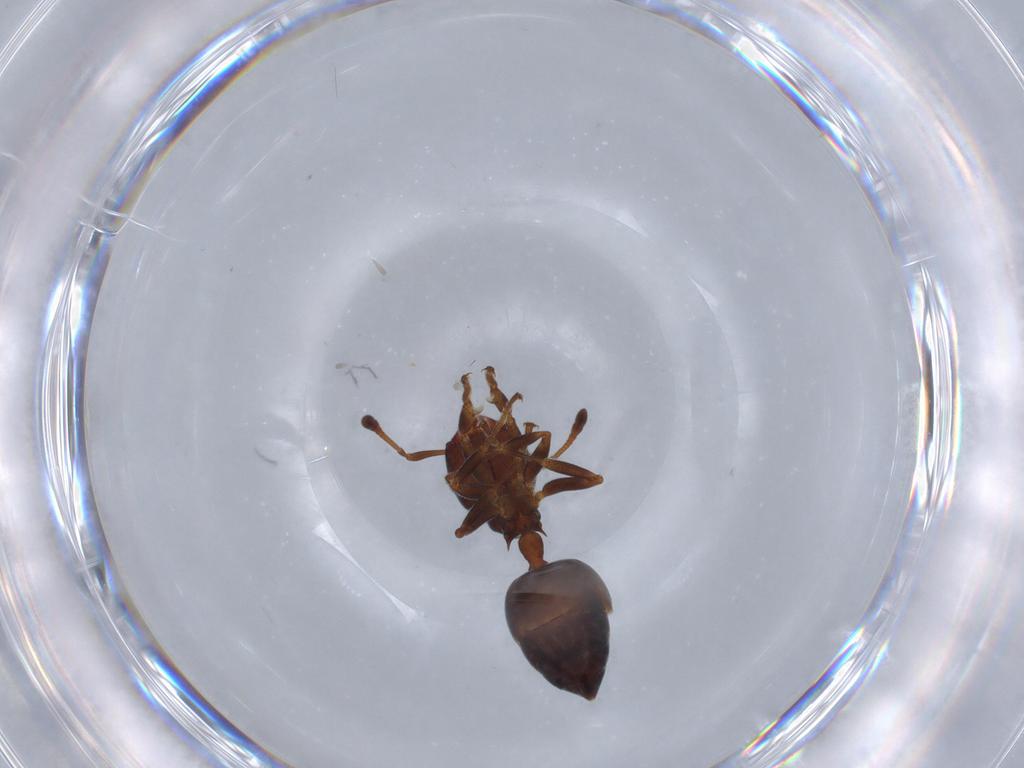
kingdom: Animalia
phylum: Arthropoda
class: Insecta
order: Hymenoptera
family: Formicidae
